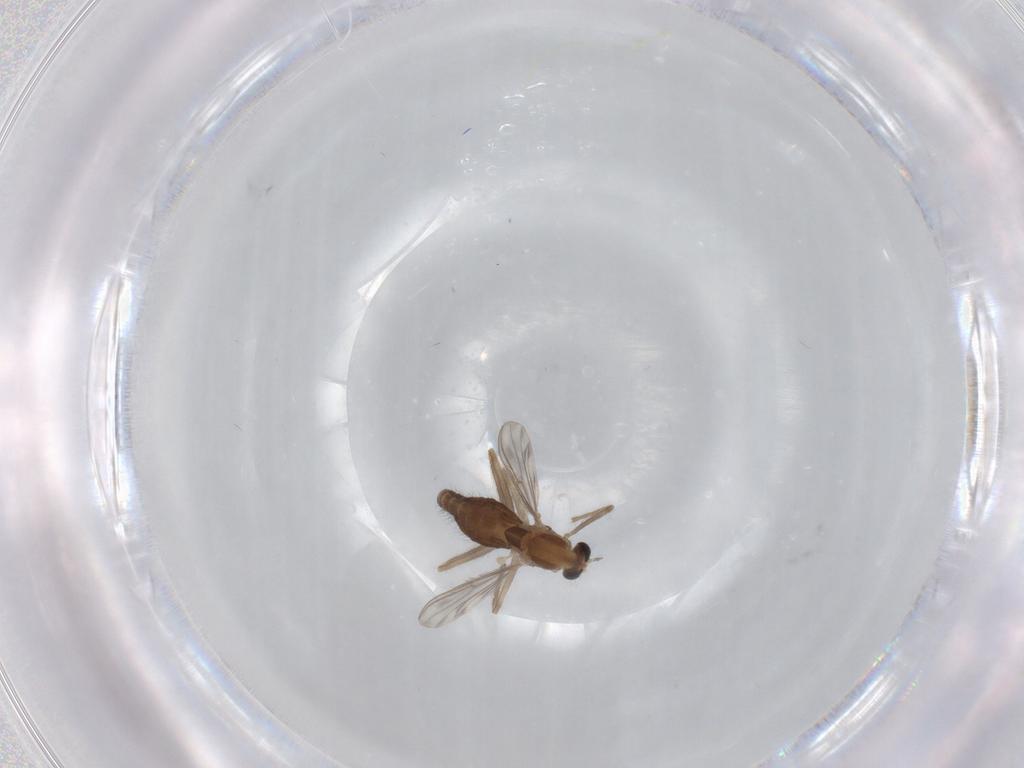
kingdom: Animalia
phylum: Arthropoda
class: Insecta
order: Diptera
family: Chironomidae
